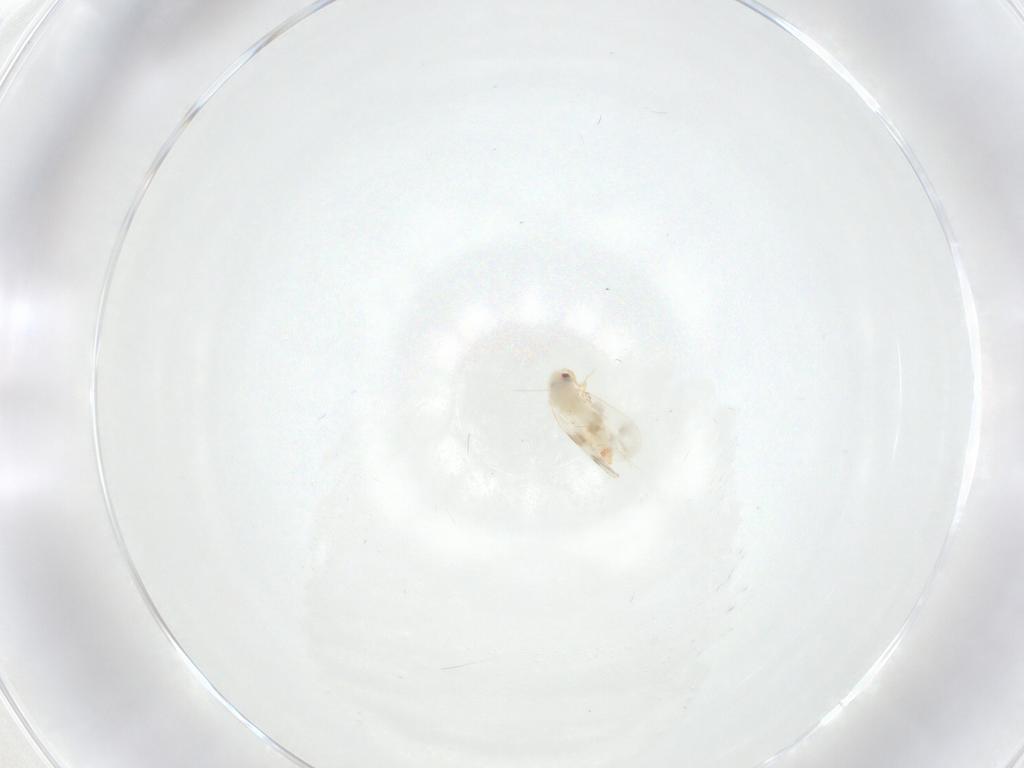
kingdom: Animalia
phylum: Arthropoda
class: Insecta
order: Hemiptera
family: Aleyrodidae
